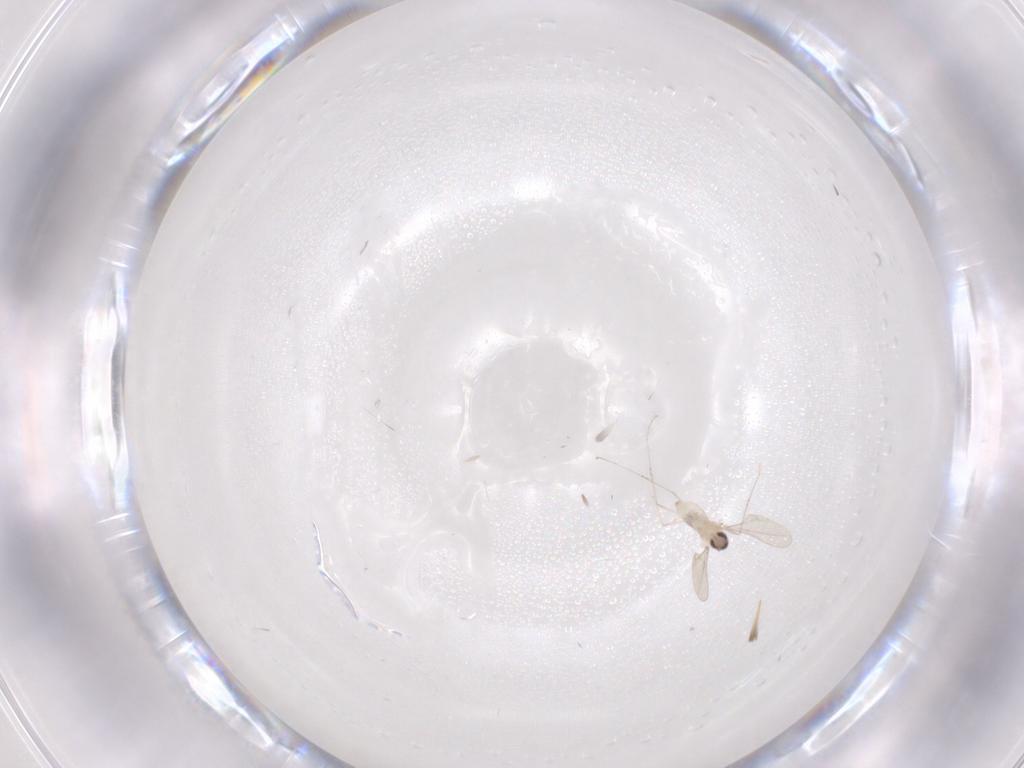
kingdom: Animalia
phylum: Arthropoda
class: Insecta
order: Diptera
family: Cecidomyiidae
